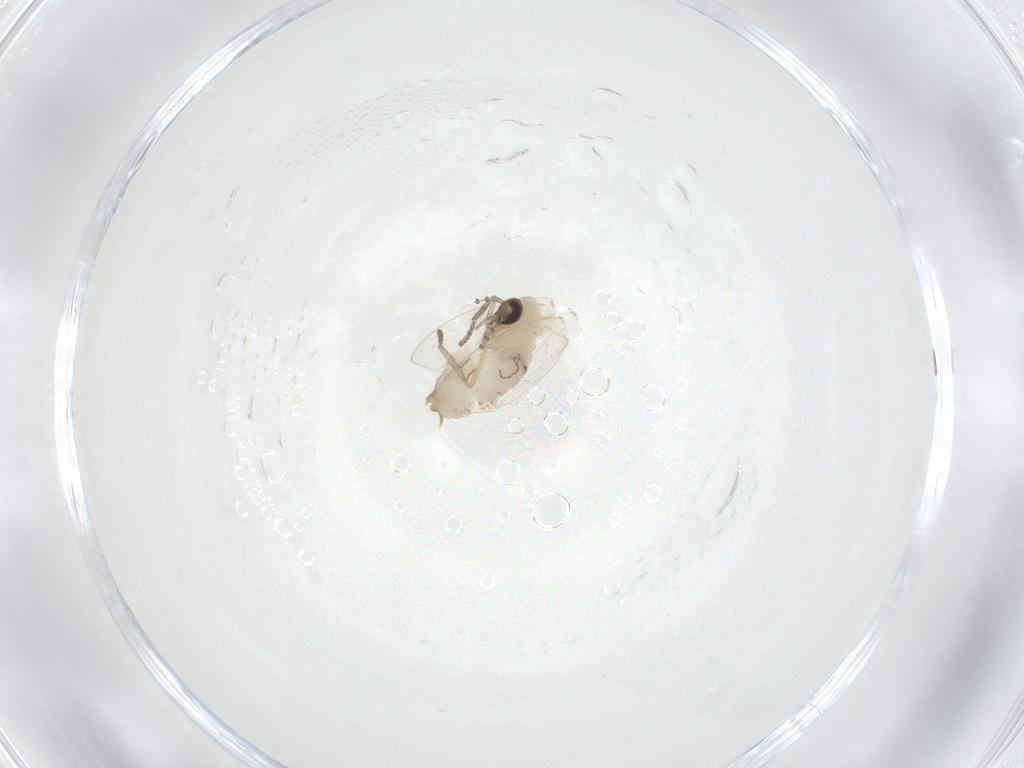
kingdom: Animalia
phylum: Arthropoda
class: Insecta
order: Diptera
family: Psychodidae
